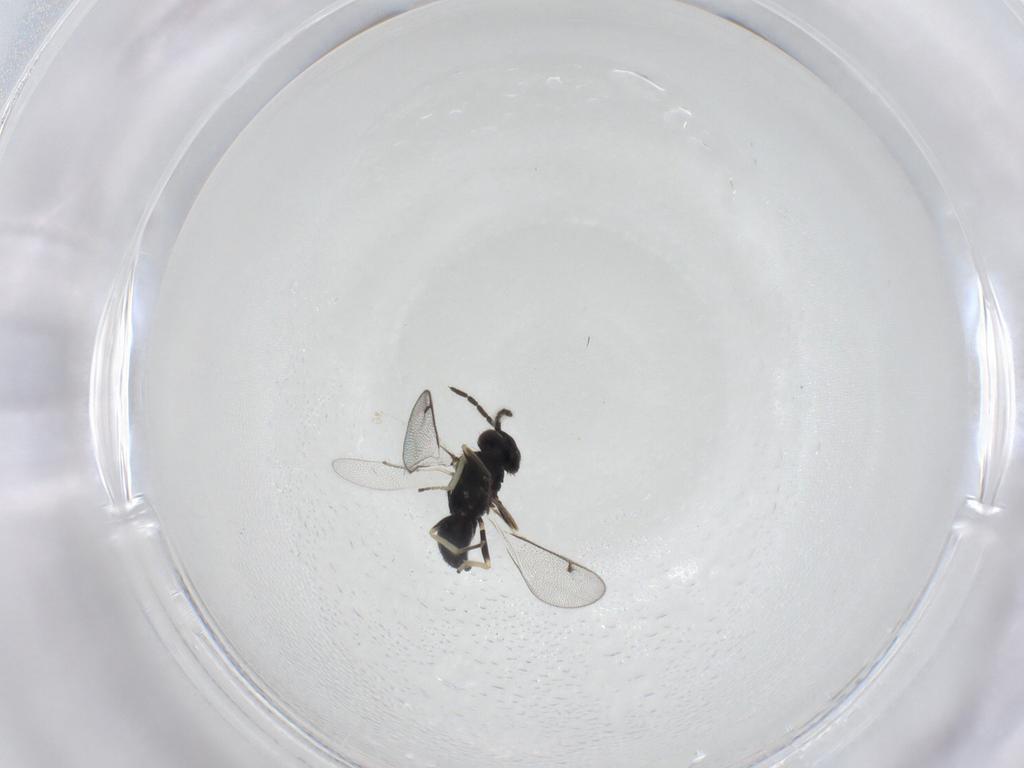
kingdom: Animalia
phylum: Arthropoda
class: Insecta
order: Hymenoptera
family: Eulophidae
